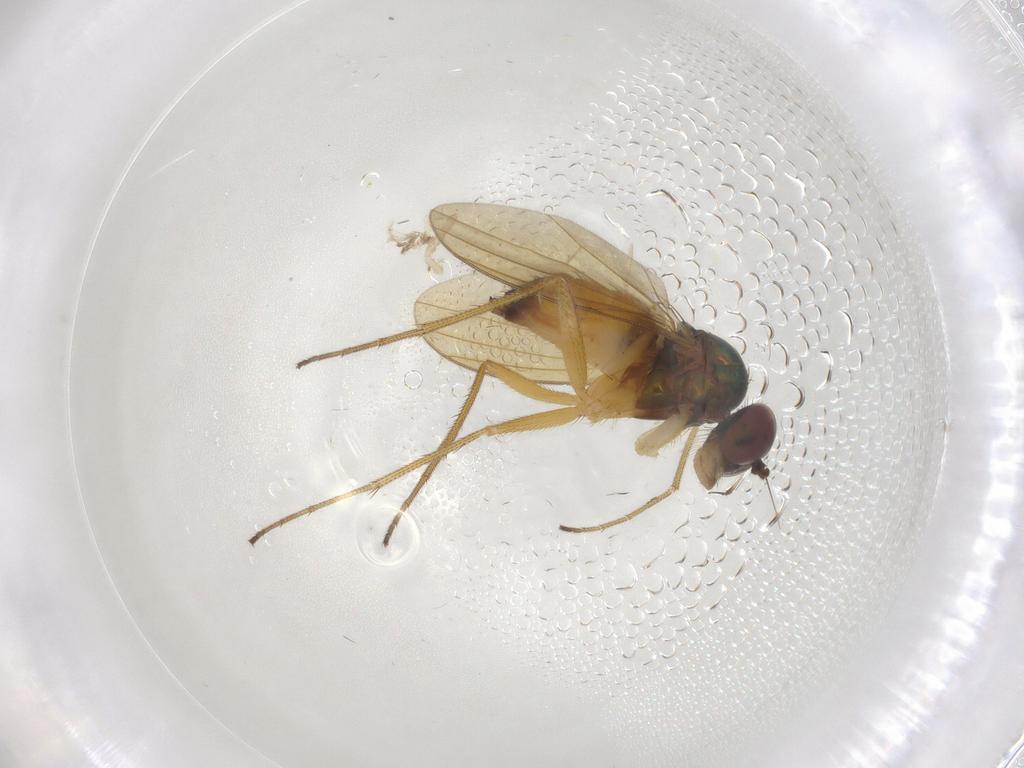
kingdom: Animalia
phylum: Arthropoda
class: Insecta
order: Diptera
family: Dolichopodidae
